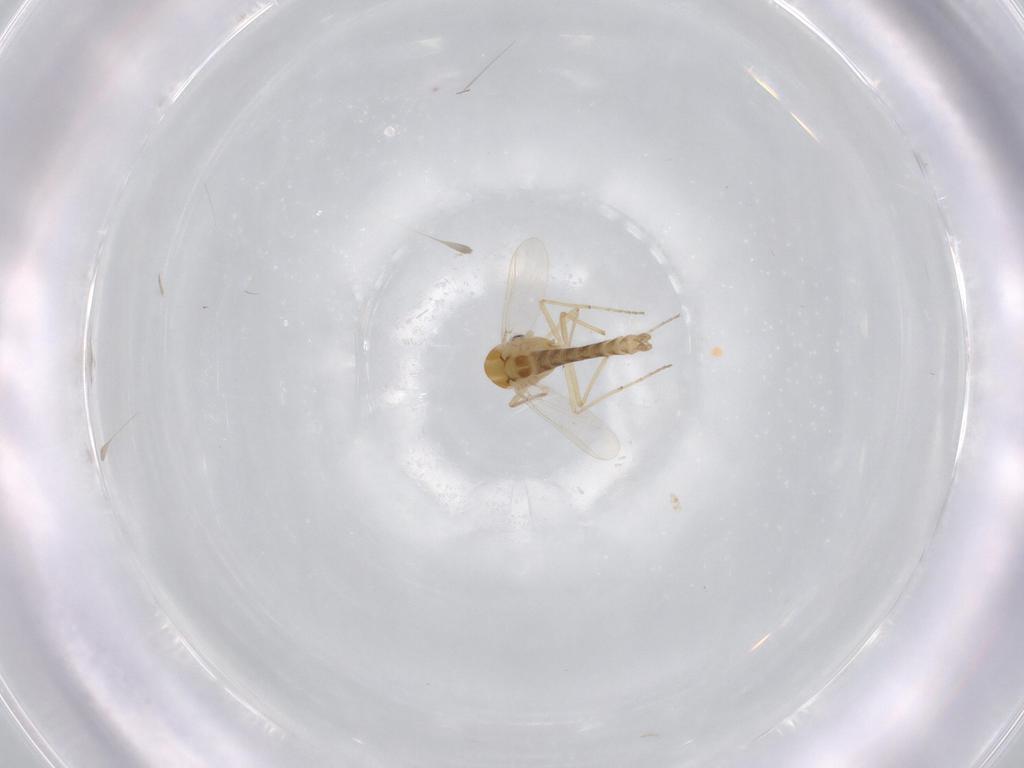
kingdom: Animalia
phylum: Arthropoda
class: Insecta
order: Diptera
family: Chironomidae
